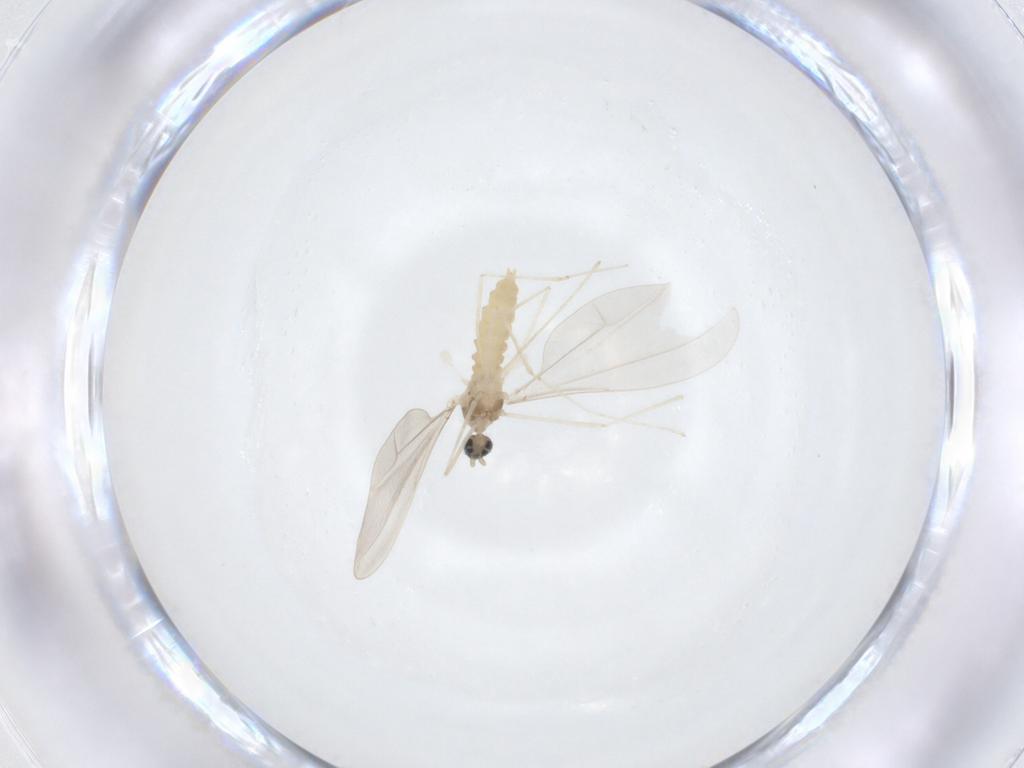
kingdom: Animalia
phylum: Arthropoda
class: Insecta
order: Diptera
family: Cecidomyiidae
